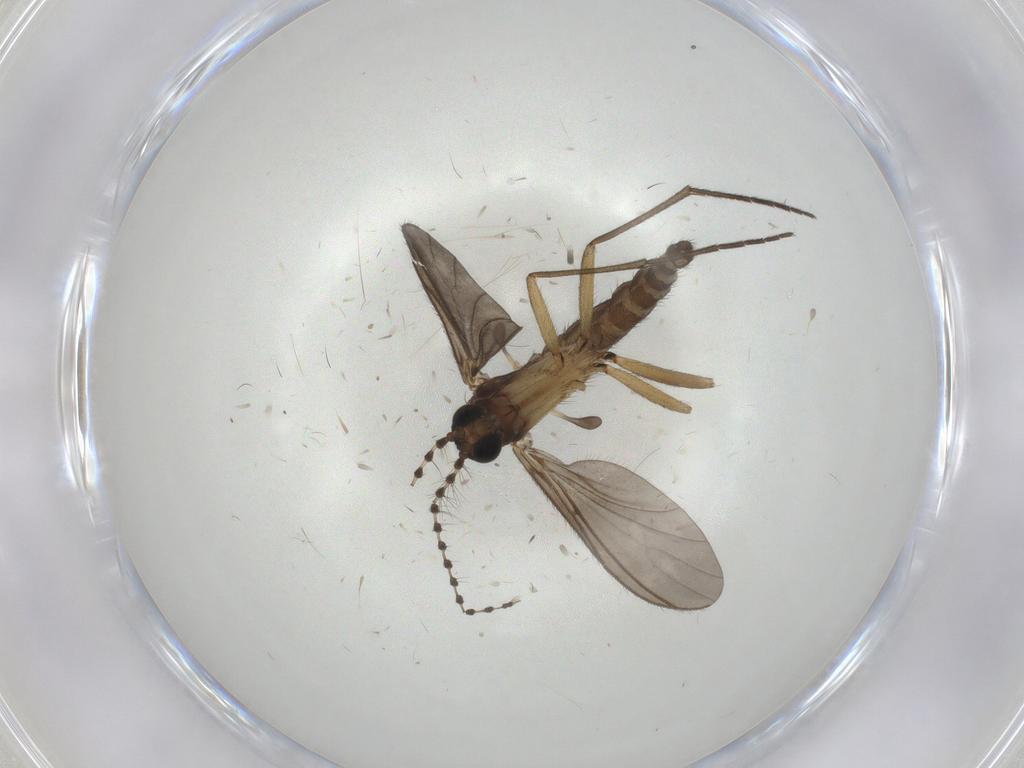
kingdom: Animalia
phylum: Arthropoda
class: Insecta
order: Diptera
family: Sciaridae
